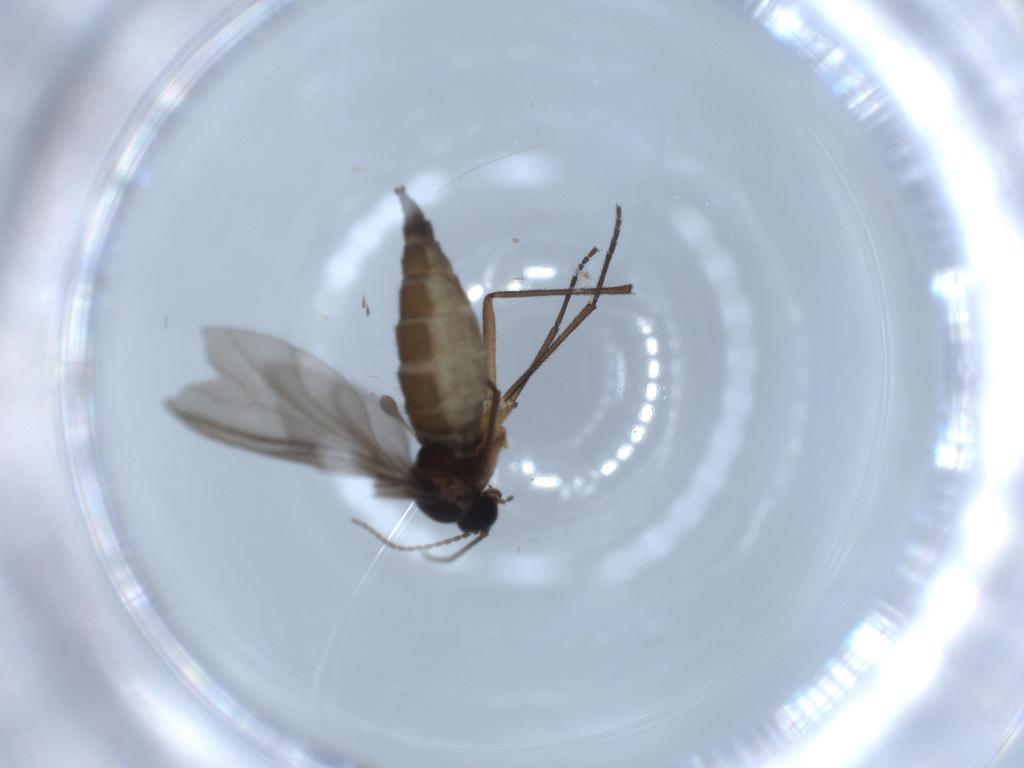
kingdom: Animalia
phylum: Arthropoda
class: Insecta
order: Diptera
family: Sciaridae
